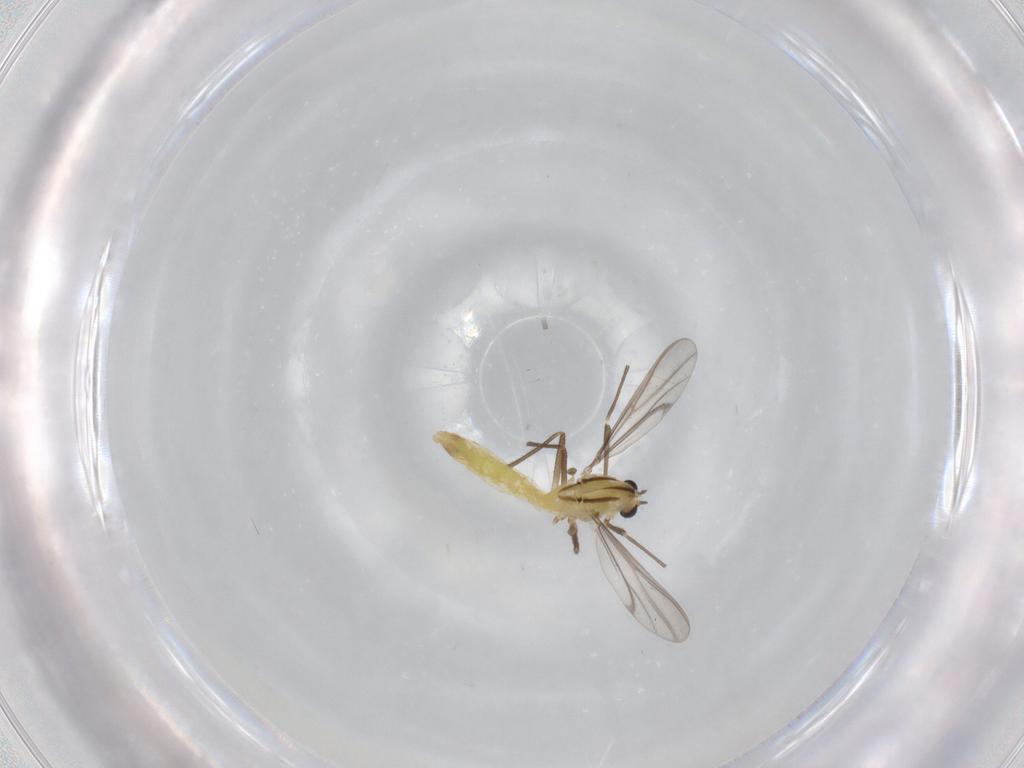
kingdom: Animalia
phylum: Arthropoda
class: Insecta
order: Diptera
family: Chironomidae
